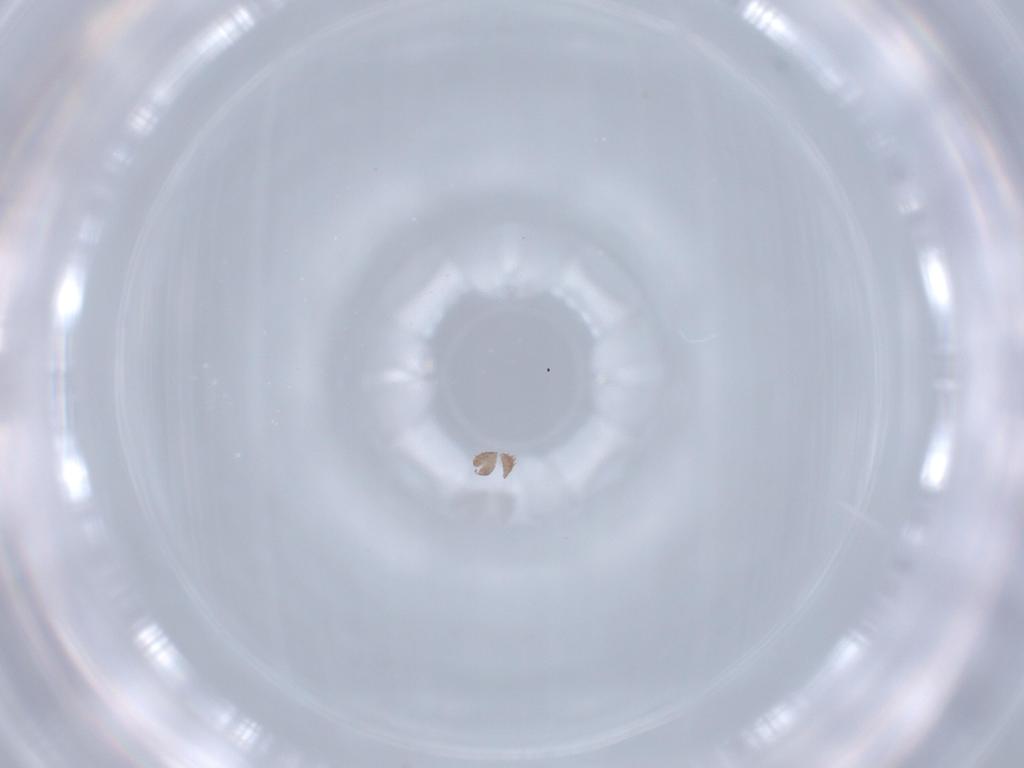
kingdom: Animalia
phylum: Arthropoda
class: Arachnida
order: Sarcoptiformes
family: Acaridae
